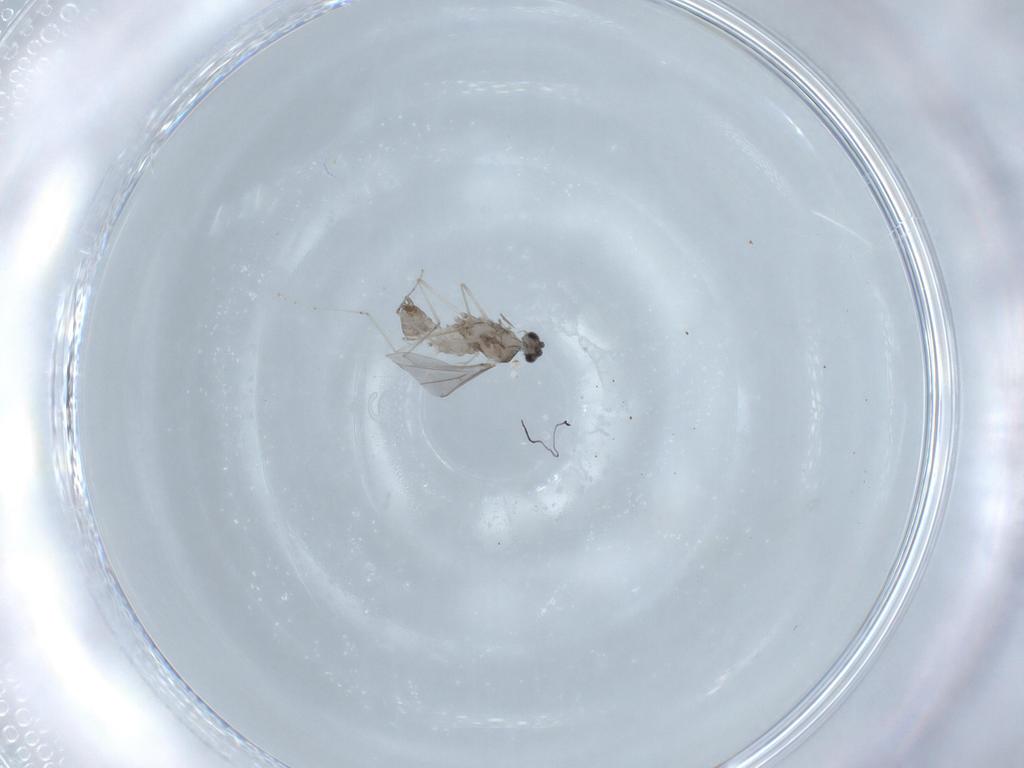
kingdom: Animalia
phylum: Arthropoda
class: Insecta
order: Diptera
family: Cecidomyiidae
